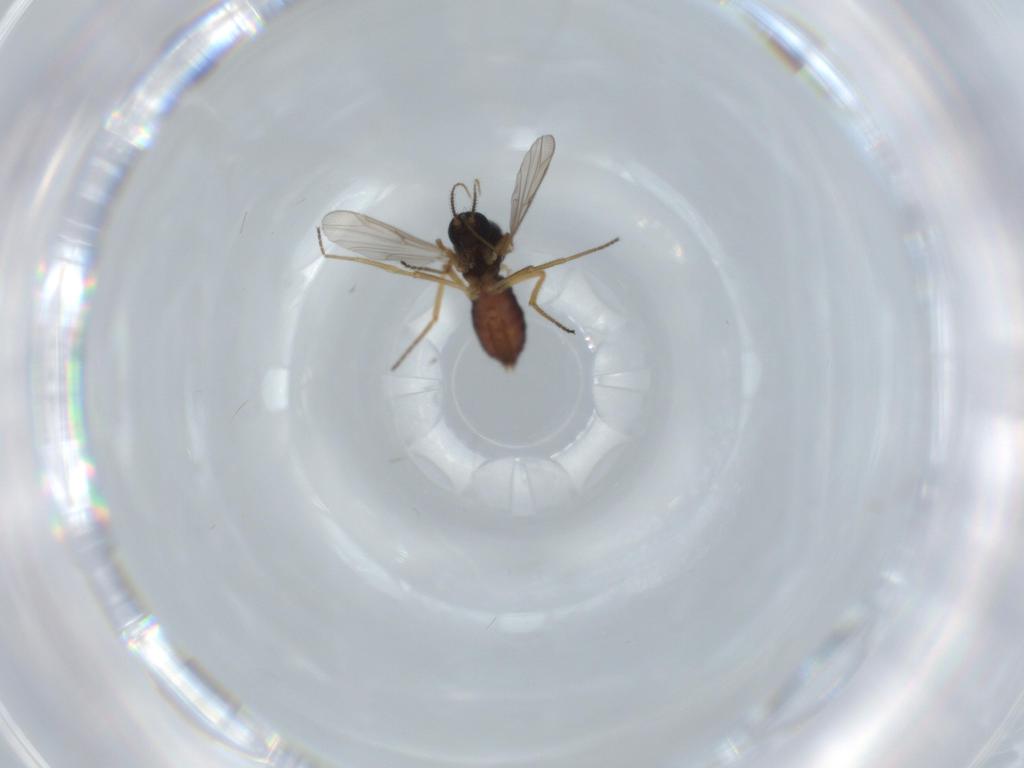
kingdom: Animalia
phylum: Arthropoda
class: Insecta
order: Diptera
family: Ceratopogonidae
